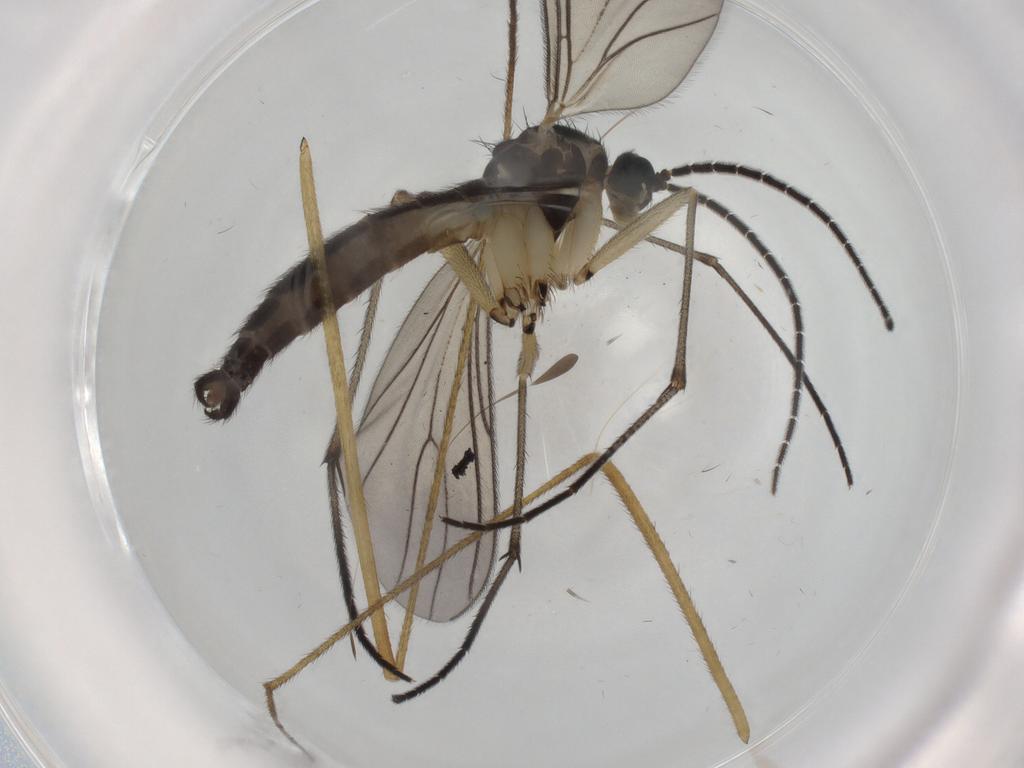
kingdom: Animalia
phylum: Arthropoda
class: Insecta
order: Diptera
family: Sciaridae
